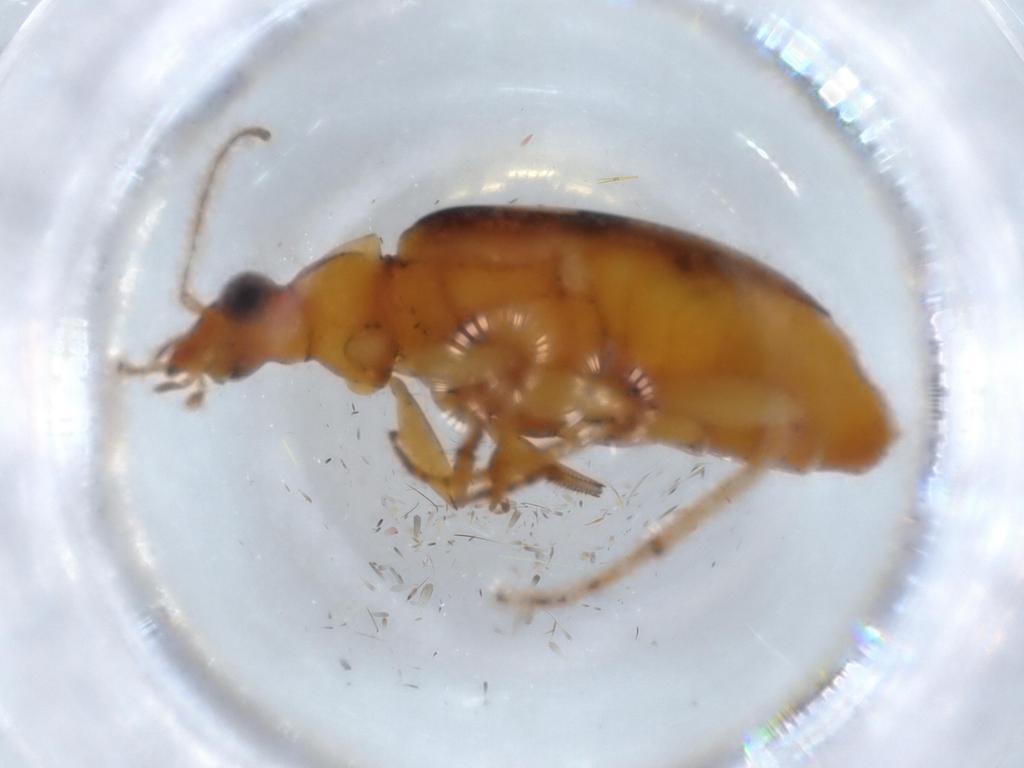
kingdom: Animalia
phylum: Arthropoda
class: Insecta
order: Coleoptera
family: Carabidae
